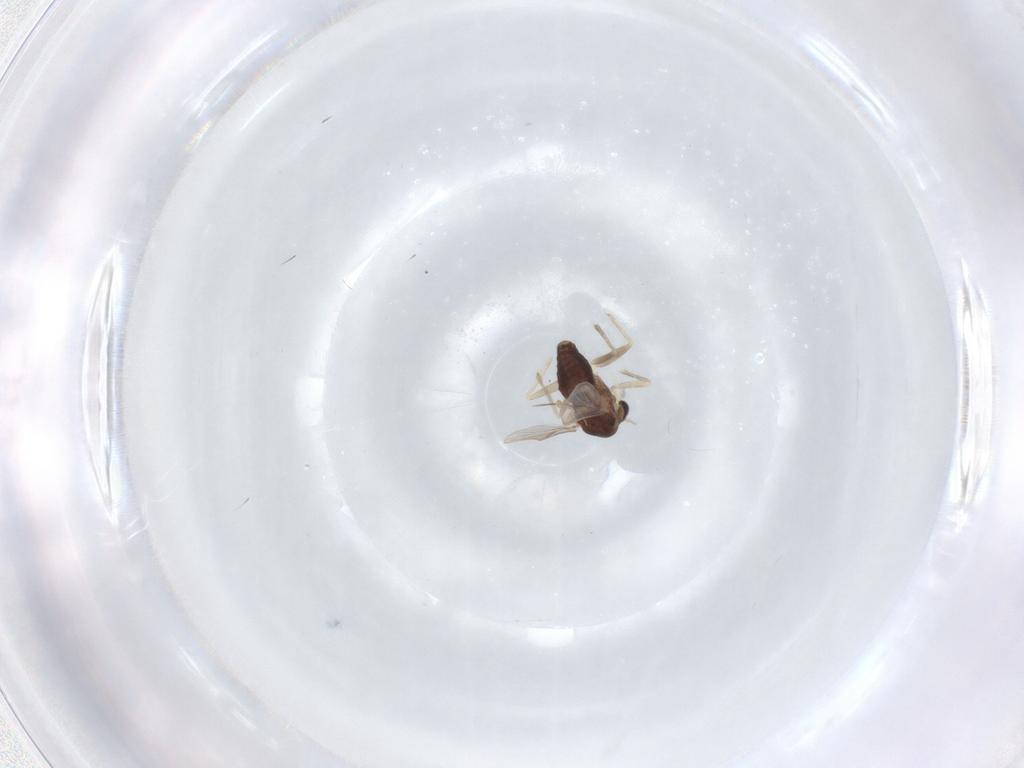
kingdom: Animalia
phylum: Arthropoda
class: Insecta
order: Diptera
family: Chironomidae
